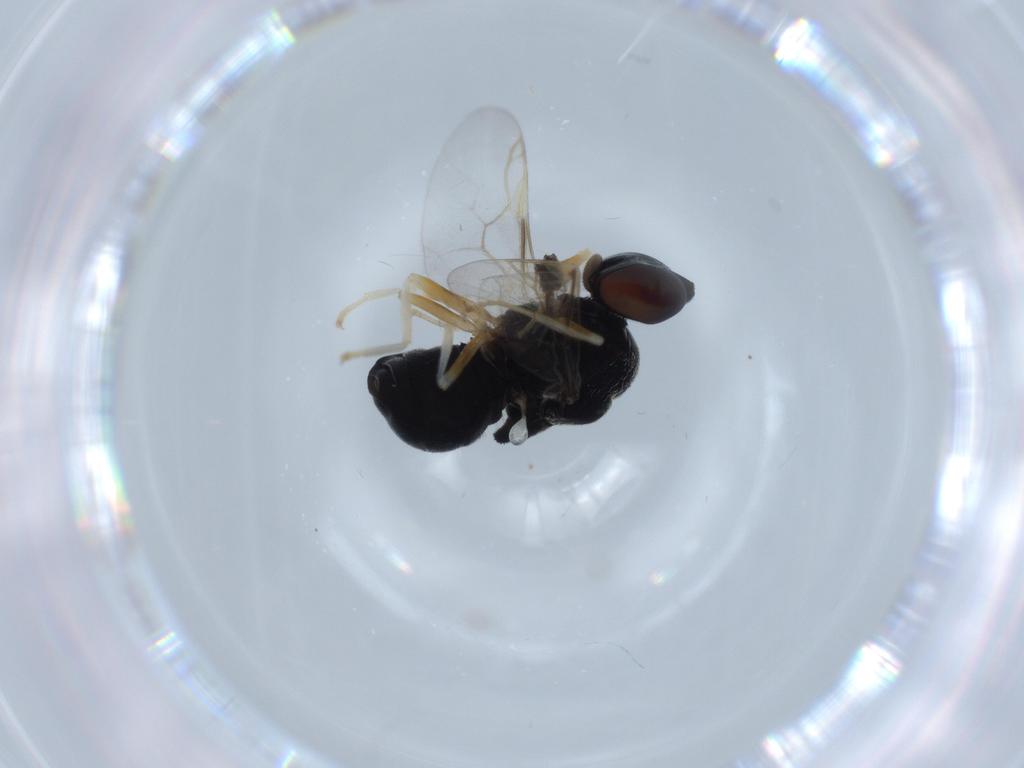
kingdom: Animalia
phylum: Arthropoda
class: Insecta
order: Diptera
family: Stratiomyidae
